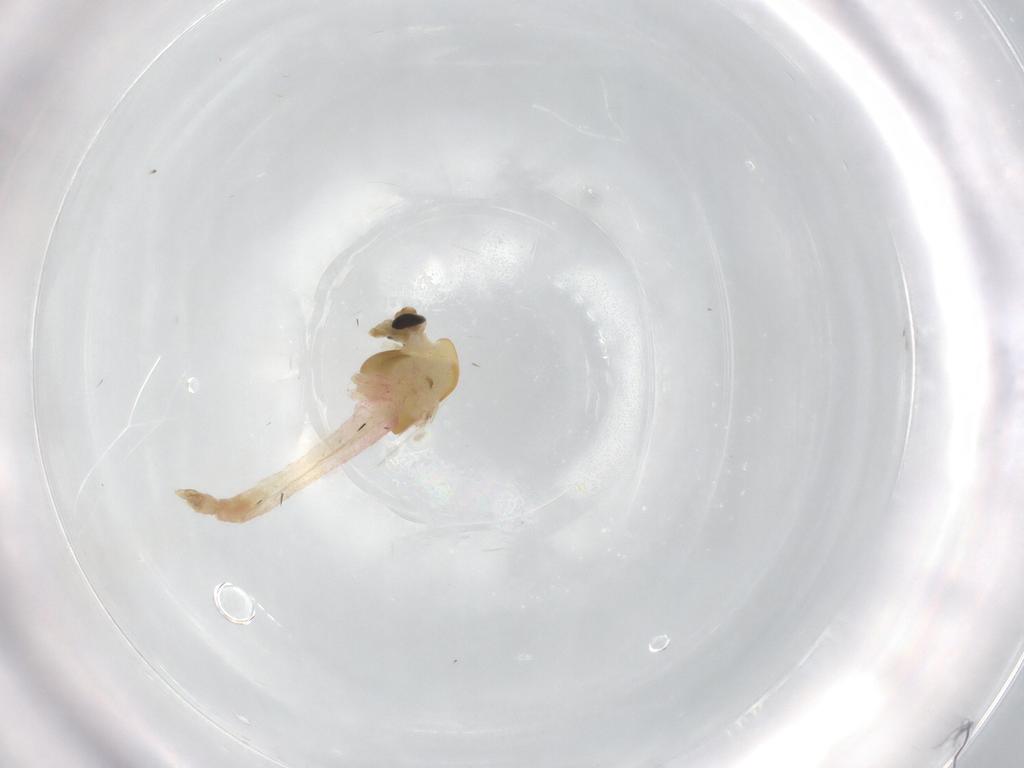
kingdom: Animalia
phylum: Arthropoda
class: Insecta
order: Diptera
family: Chironomidae
